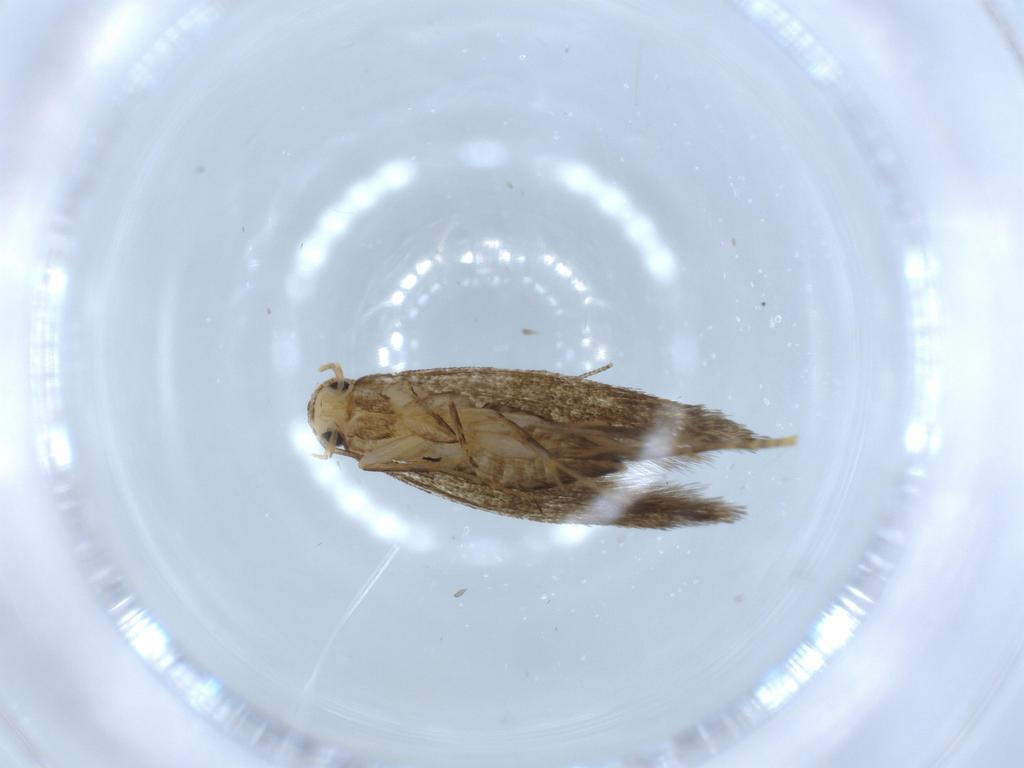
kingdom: Animalia
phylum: Arthropoda
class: Insecta
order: Lepidoptera
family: Tineidae
